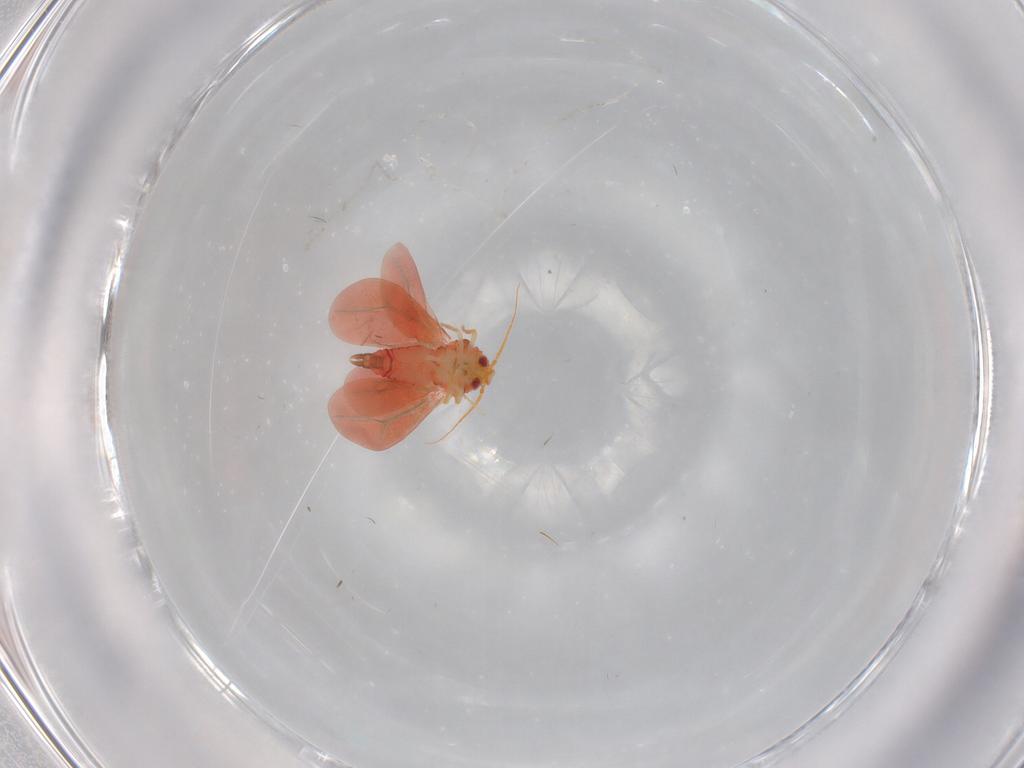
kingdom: Animalia
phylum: Arthropoda
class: Insecta
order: Hemiptera
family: Aleyrodidae
